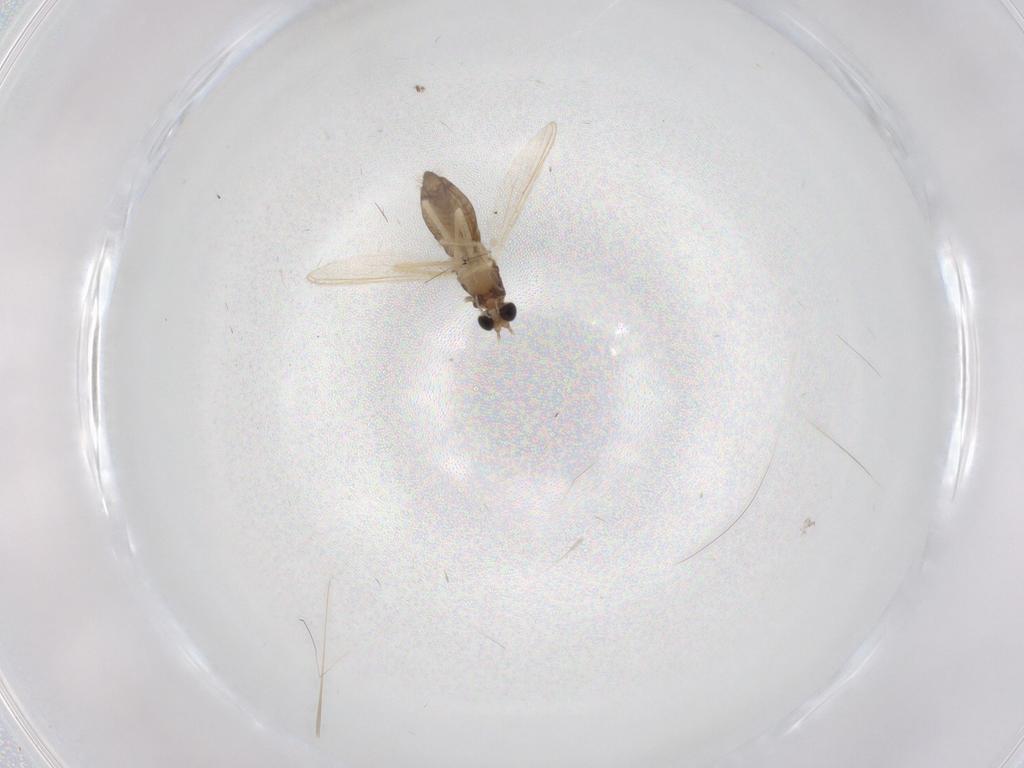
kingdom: Animalia
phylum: Arthropoda
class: Insecta
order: Diptera
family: Chironomidae
